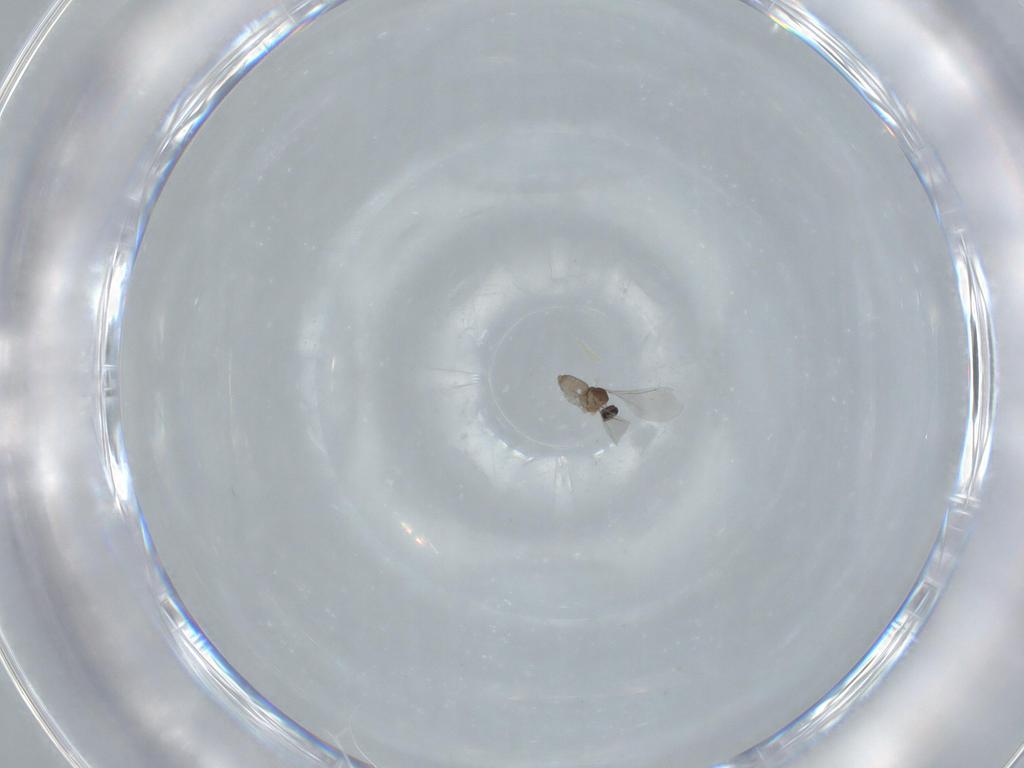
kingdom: Animalia
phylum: Arthropoda
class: Insecta
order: Diptera
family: Cecidomyiidae
